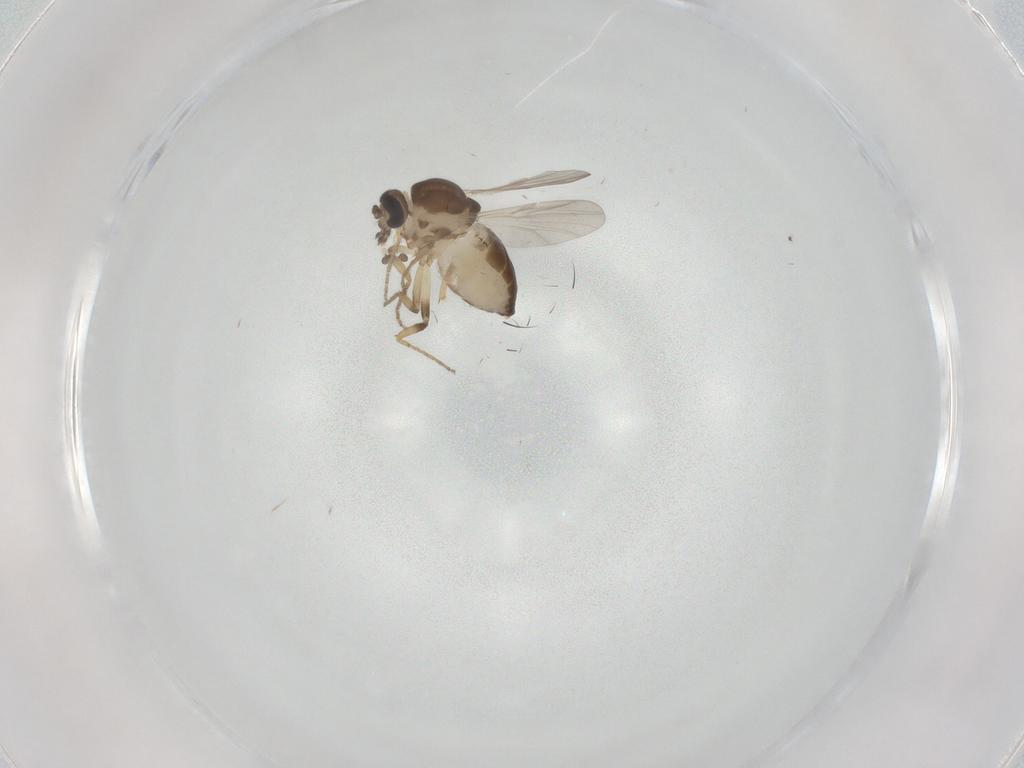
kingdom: Animalia
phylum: Arthropoda
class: Insecta
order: Diptera
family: Ceratopogonidae
